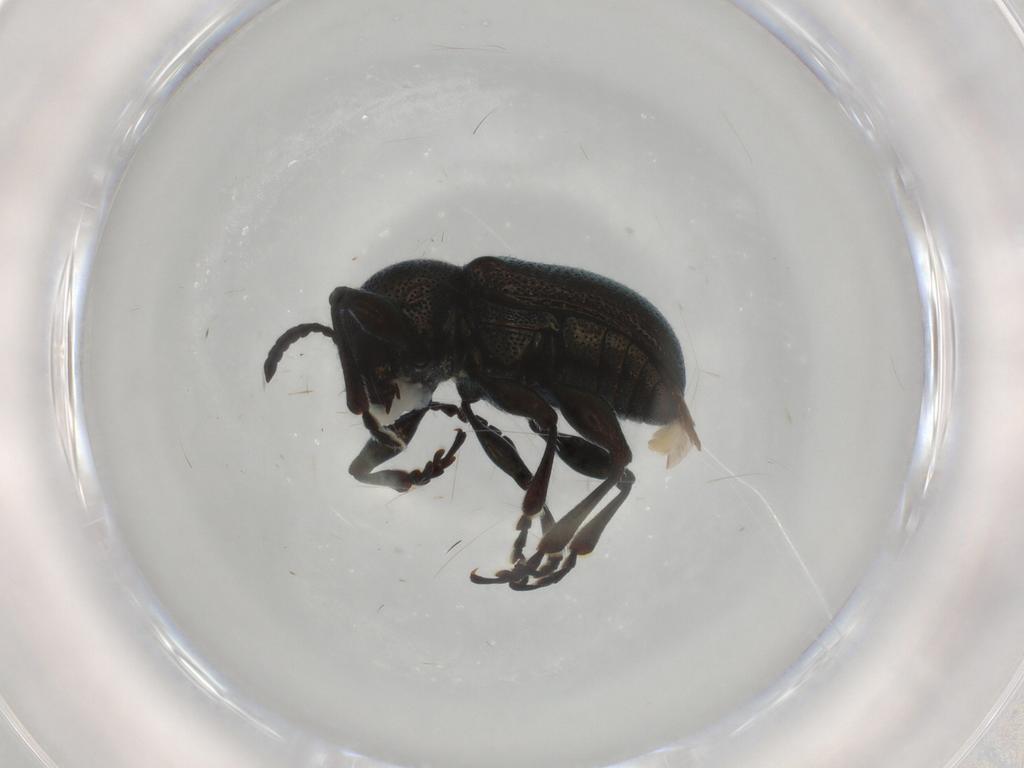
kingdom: Animalia
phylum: Arthropoda
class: Insecta
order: Coleoptera
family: Chrysomelidae
